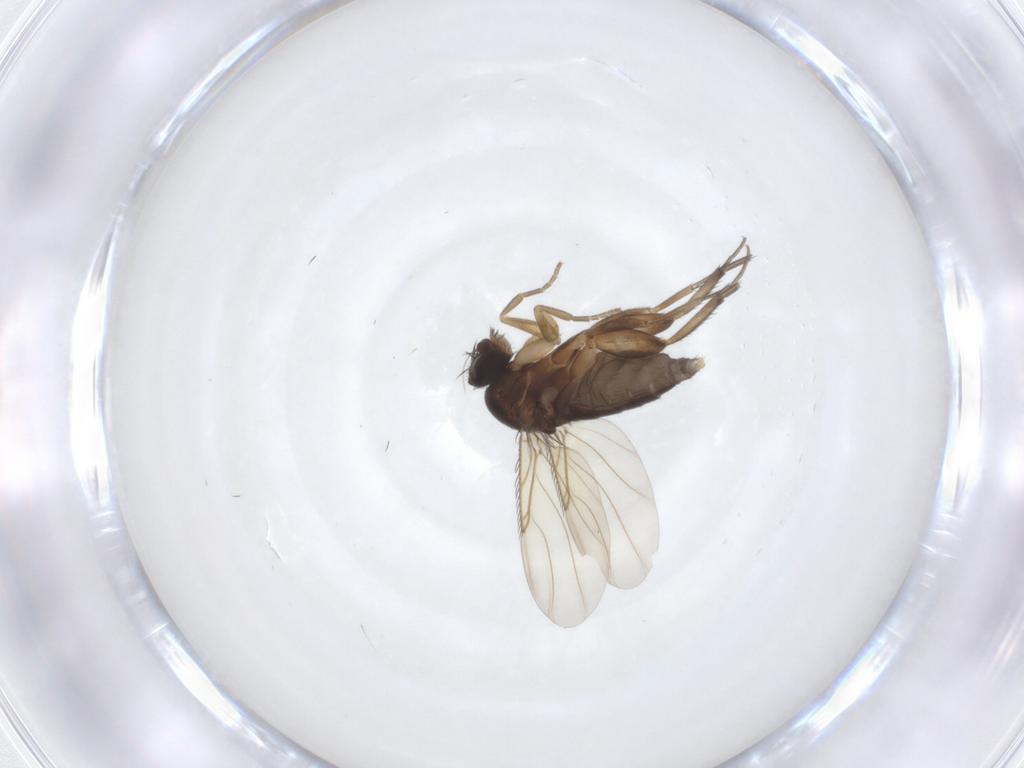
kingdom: Animalia
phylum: Arthropoda
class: Insecta
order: Diptera
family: Phoridae
